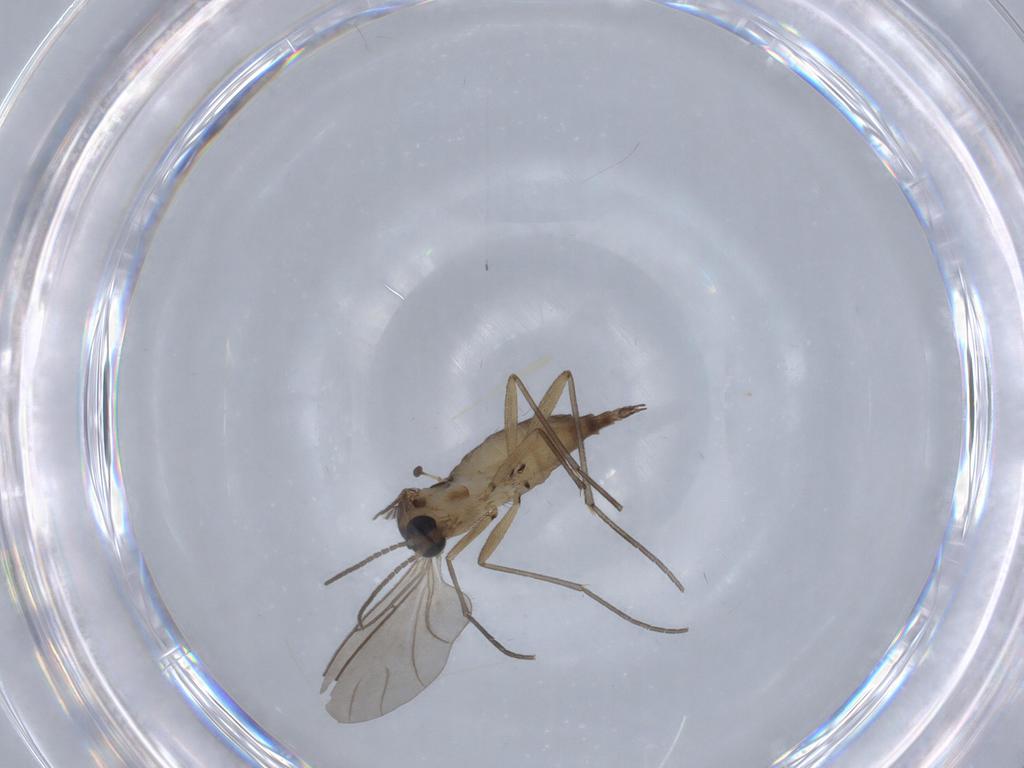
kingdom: Animalia
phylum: Arthropoda
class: Insecta
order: Diptera
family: Sciaridae
